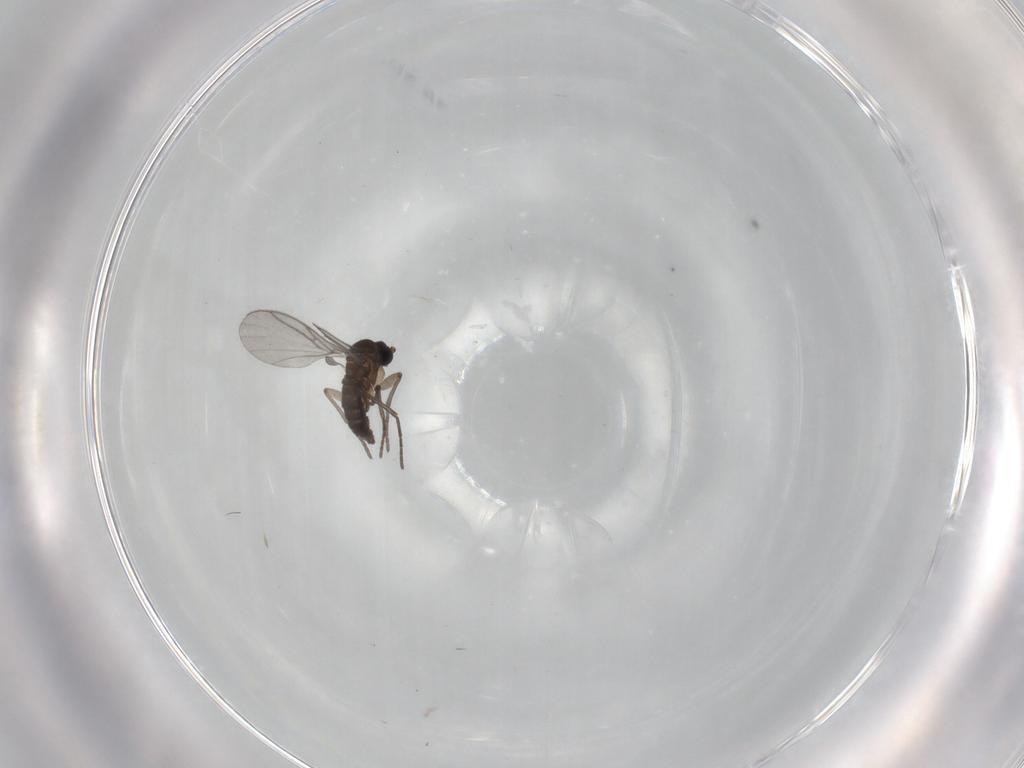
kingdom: Animalia
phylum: Arthropoda
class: Insecta
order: Diptera
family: Sciaridae
